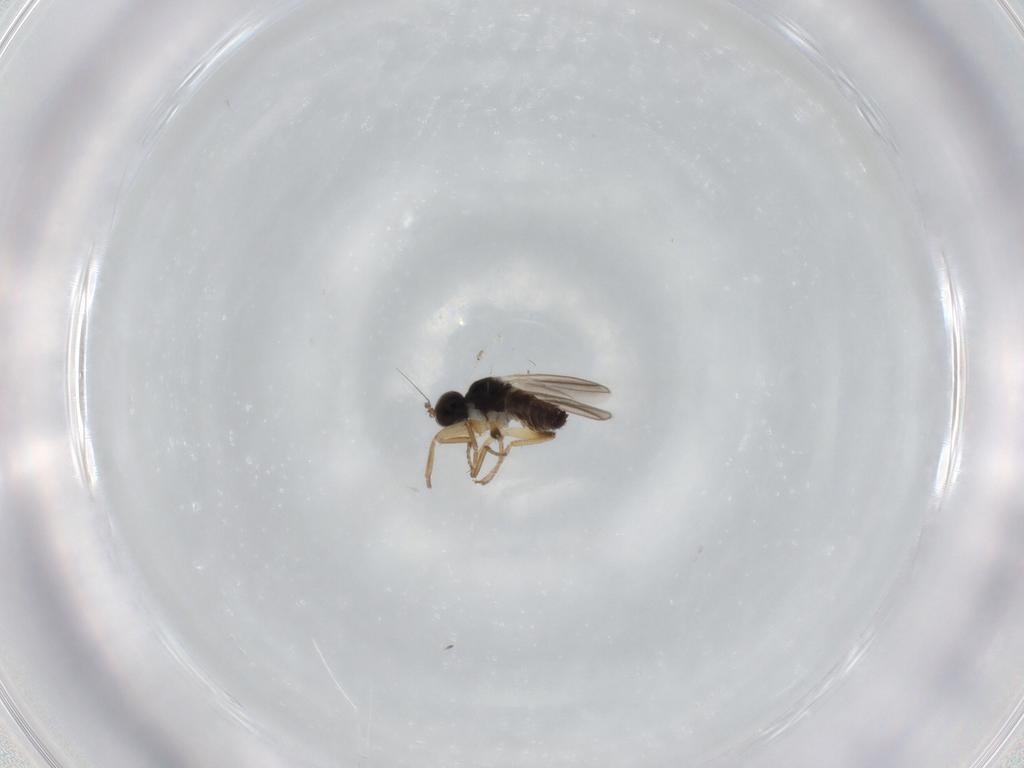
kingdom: Animalia
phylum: Arthropoda
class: Insecta
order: Diptera
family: Hybotidae
